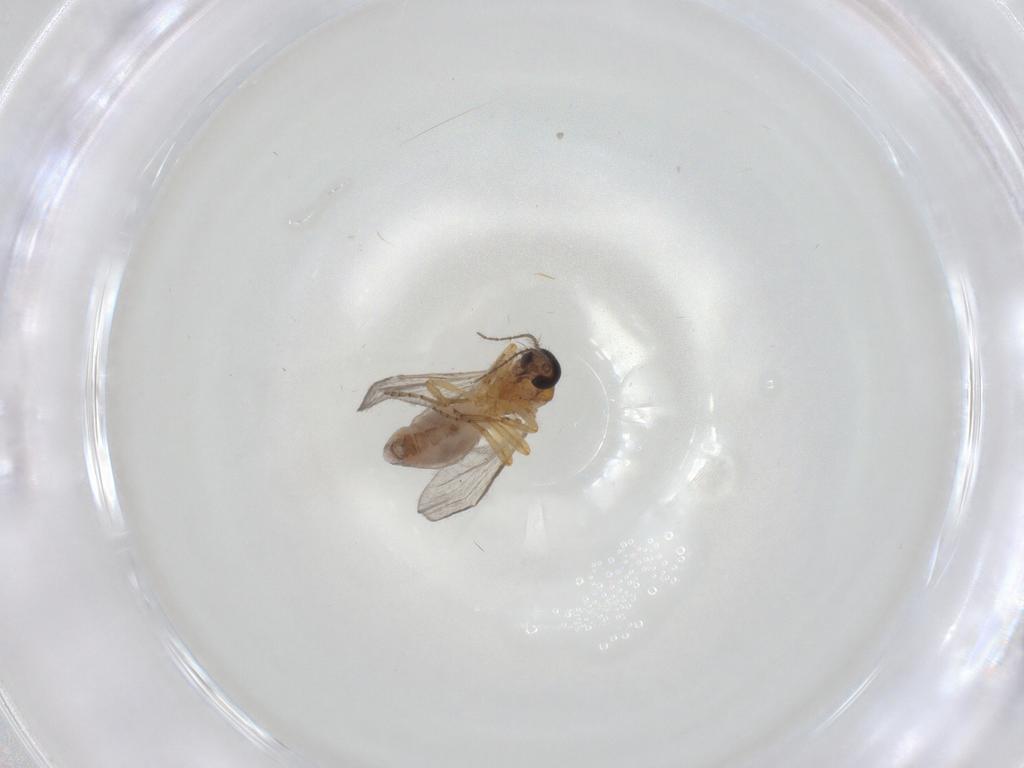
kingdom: Animalia
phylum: Arthropoda
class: Insecta
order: Diptera
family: Ceratopogonidae
